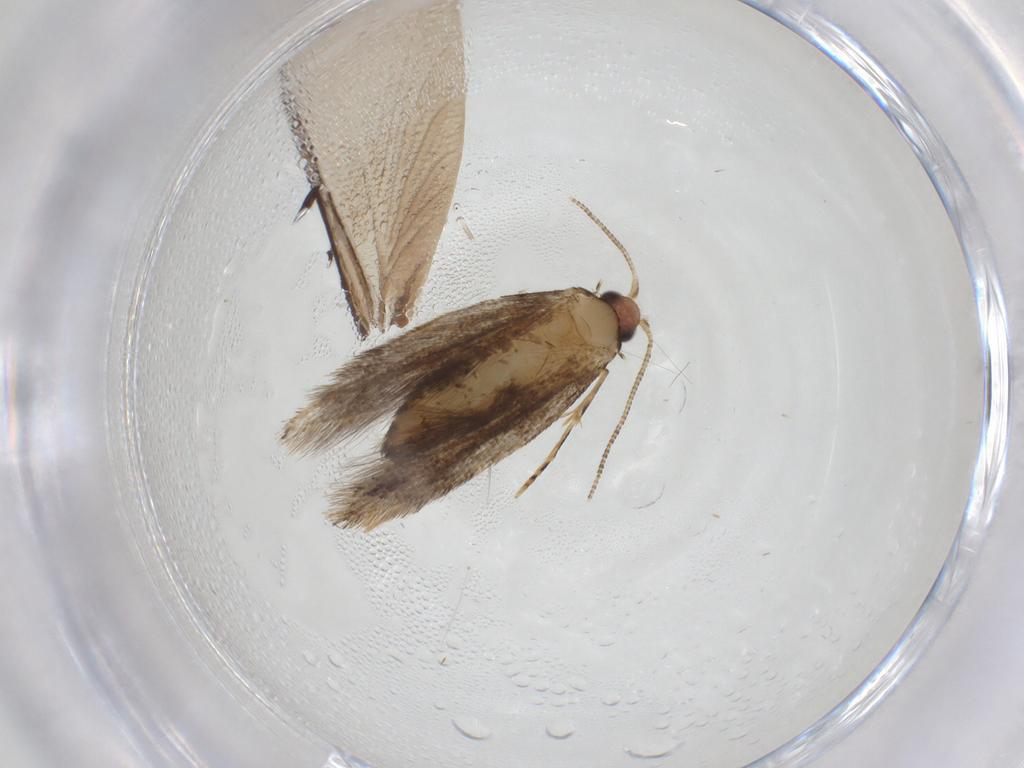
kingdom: Animalia
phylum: Arthropoda
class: Insecta
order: Lepidoptera
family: Tineidae
